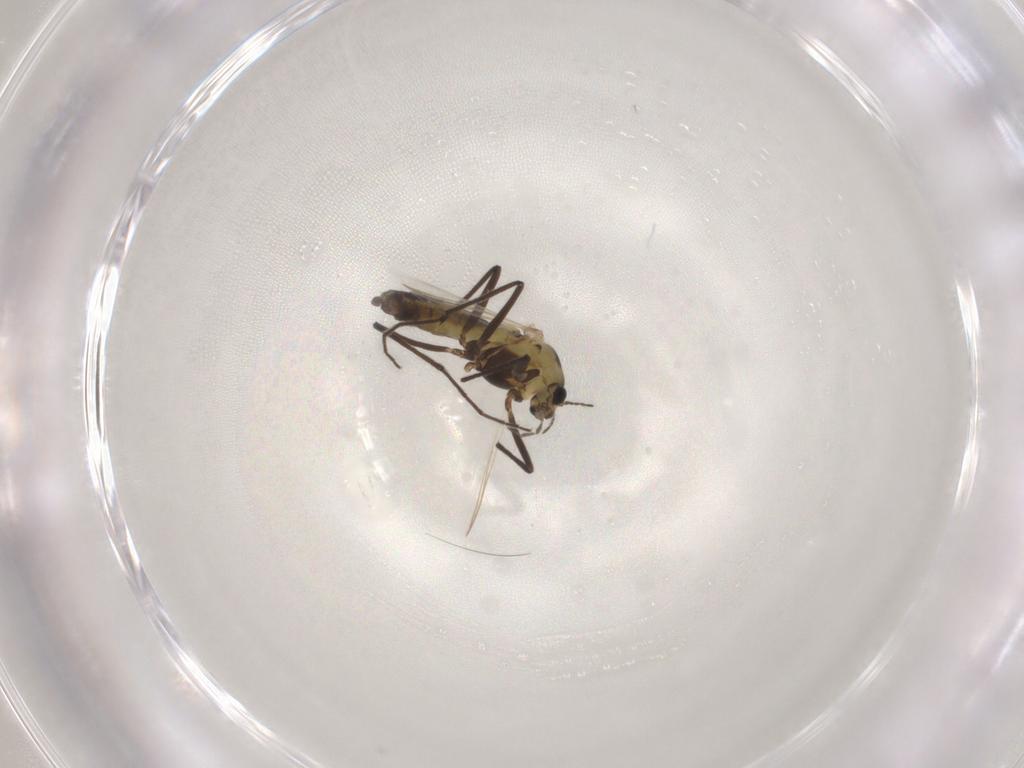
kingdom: Animalia
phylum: Arthropoda
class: Insecta
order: Diptera
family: Chironomidae
